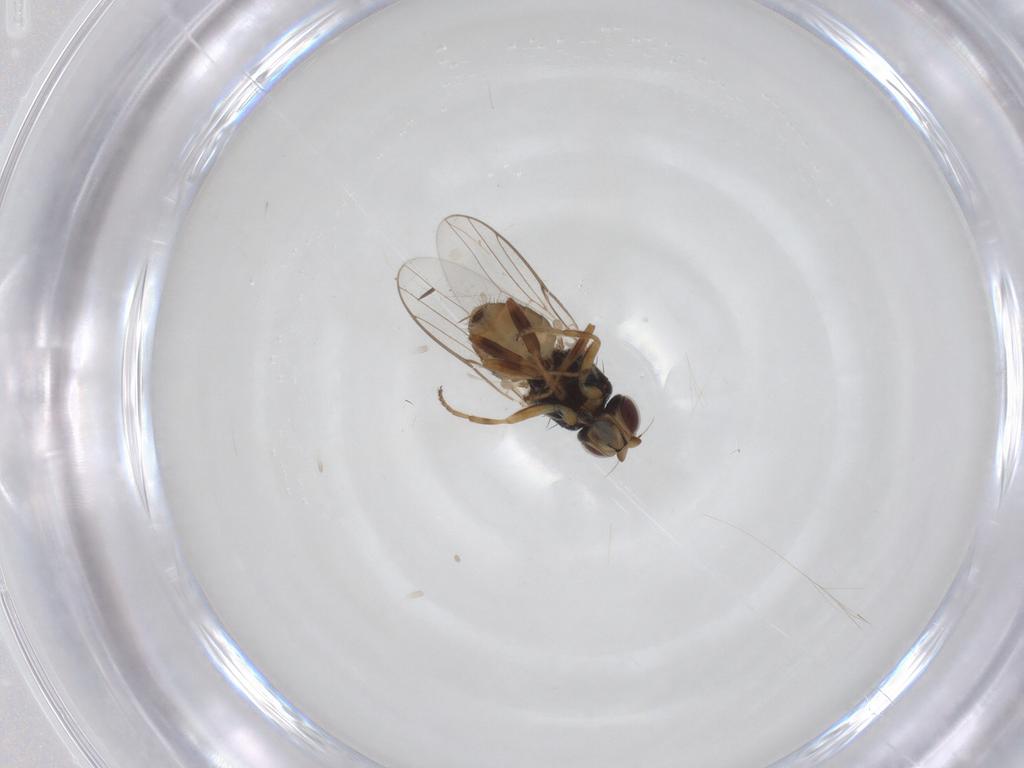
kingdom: Animalia
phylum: Arthropoda
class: Insecta
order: Diptera
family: Chloropidae
